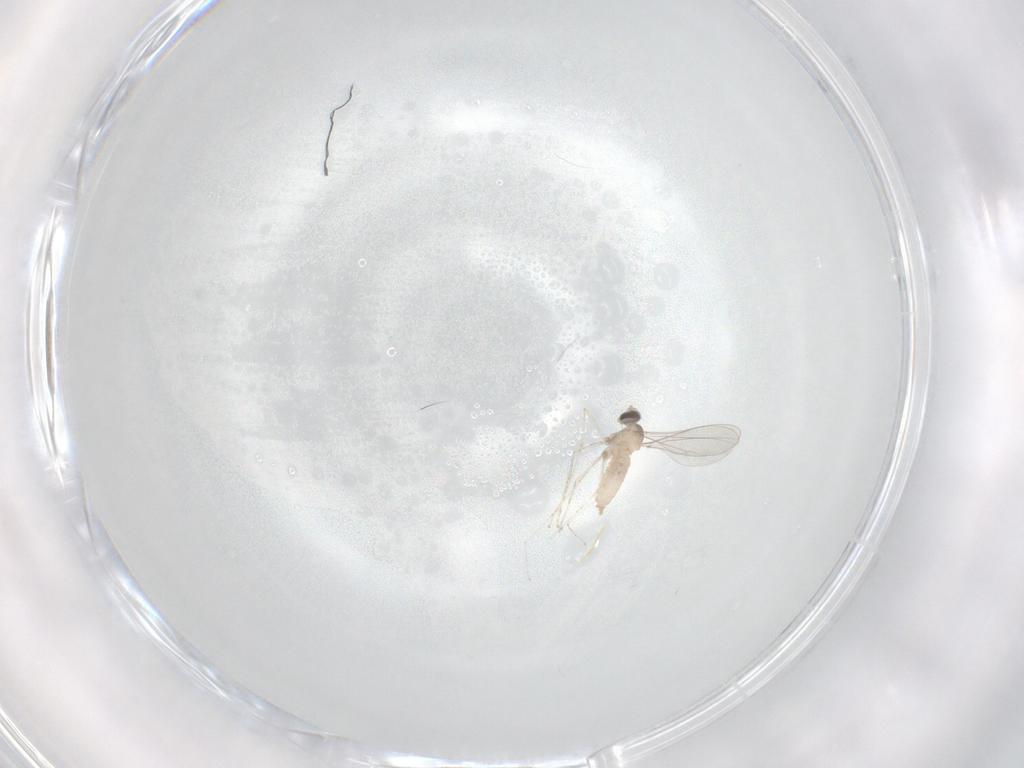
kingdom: Animalia
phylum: Arthropoda
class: Insecta
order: Diptera
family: Cecidomyiidae
